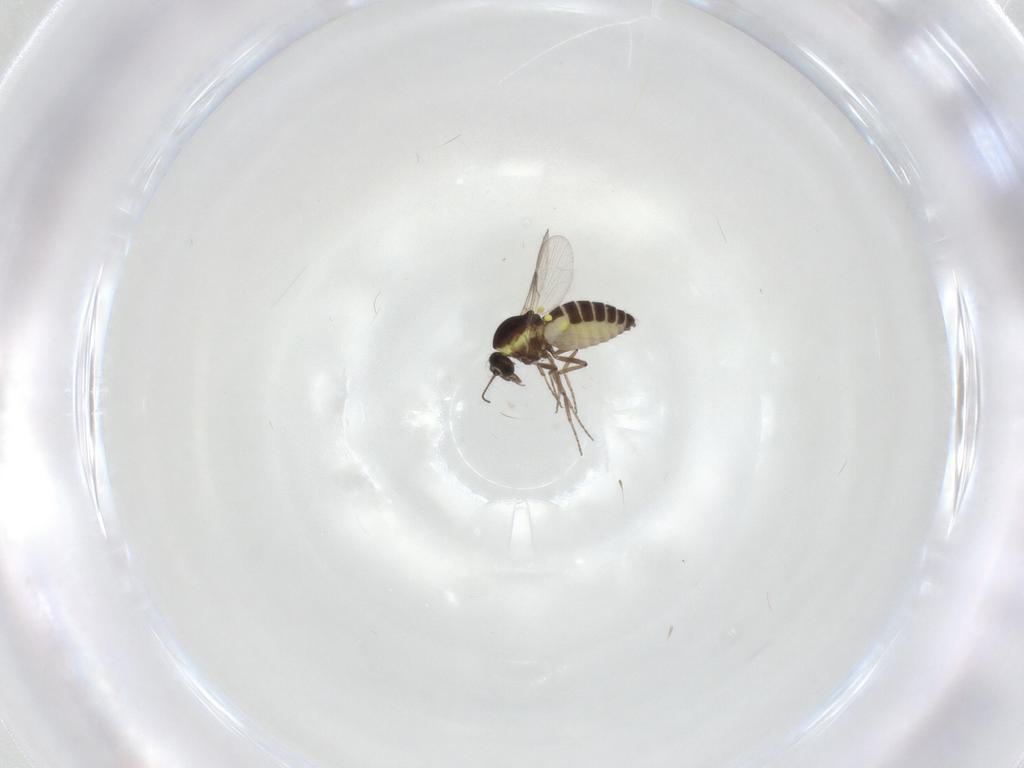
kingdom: Animalia
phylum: Arthropoda
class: Insecta
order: Diptera
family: Ceratopogonidae
